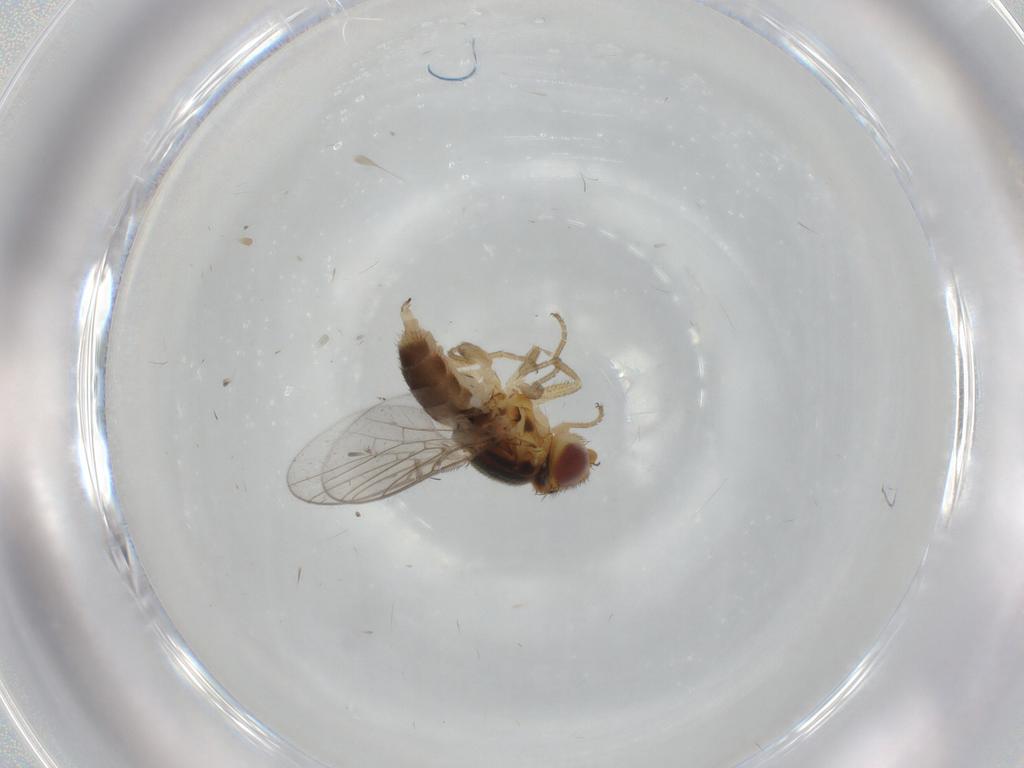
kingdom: Animalia
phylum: Arthropoda
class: Insecta
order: Diptera
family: Chloropidae
